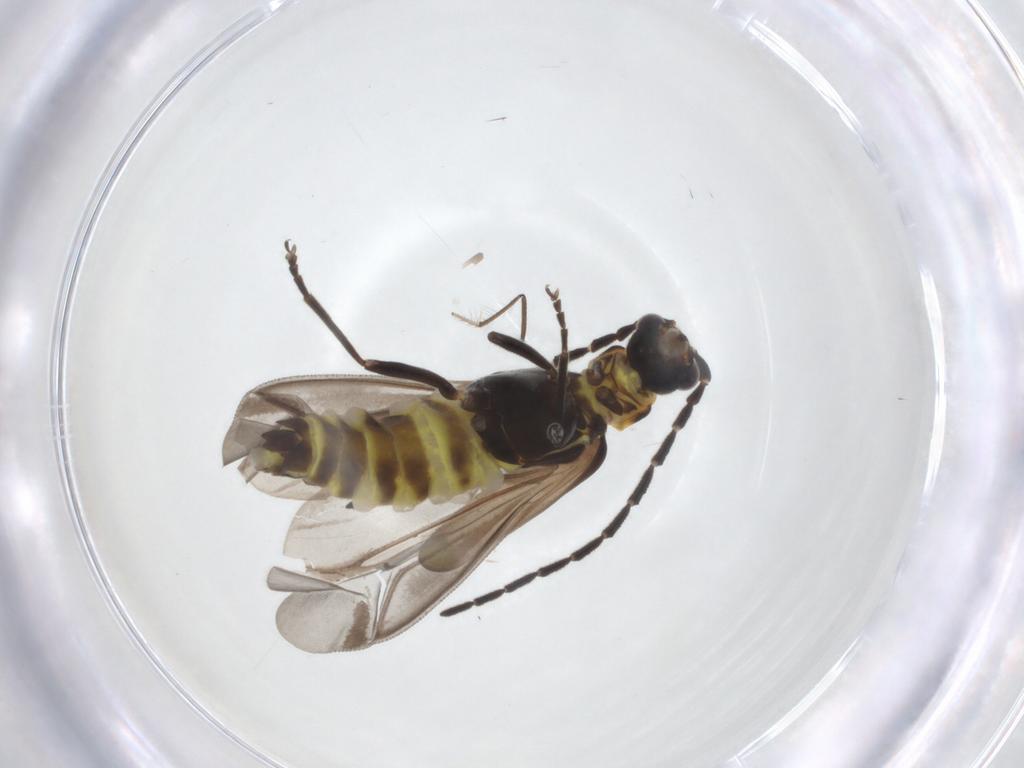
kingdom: Animalia
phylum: Arthropoda
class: Insecta
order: Coleoptera
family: Cantharidae
